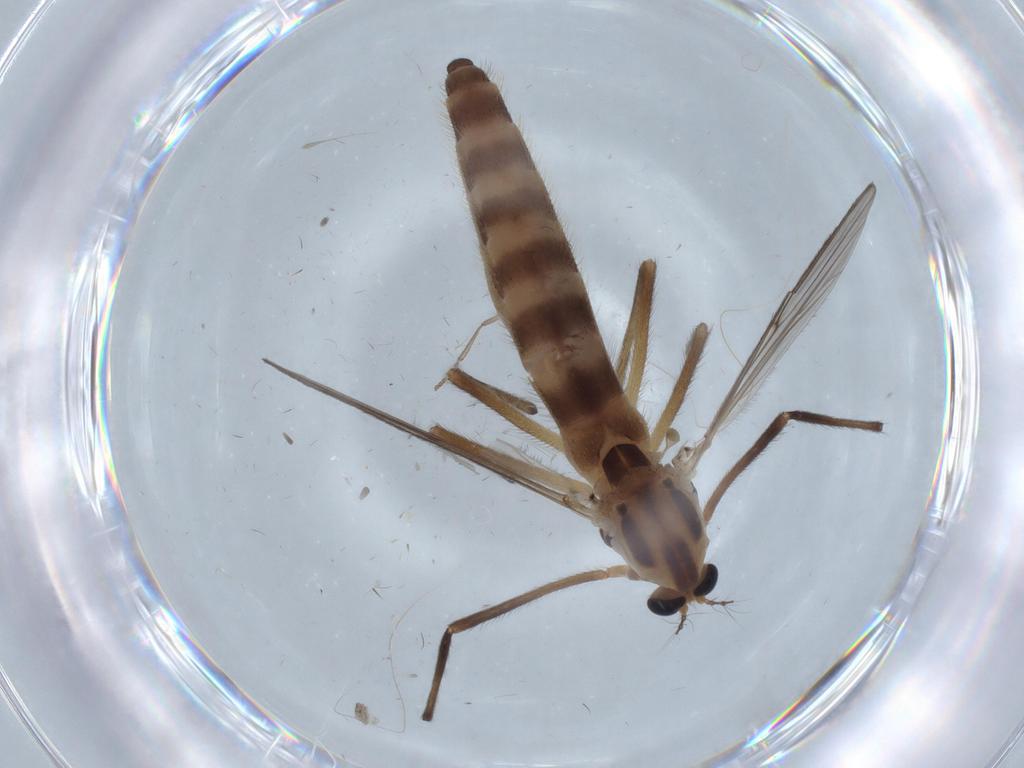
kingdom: Animalia
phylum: Arthropoda
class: Insecta
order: Diptera
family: Chironomidae
